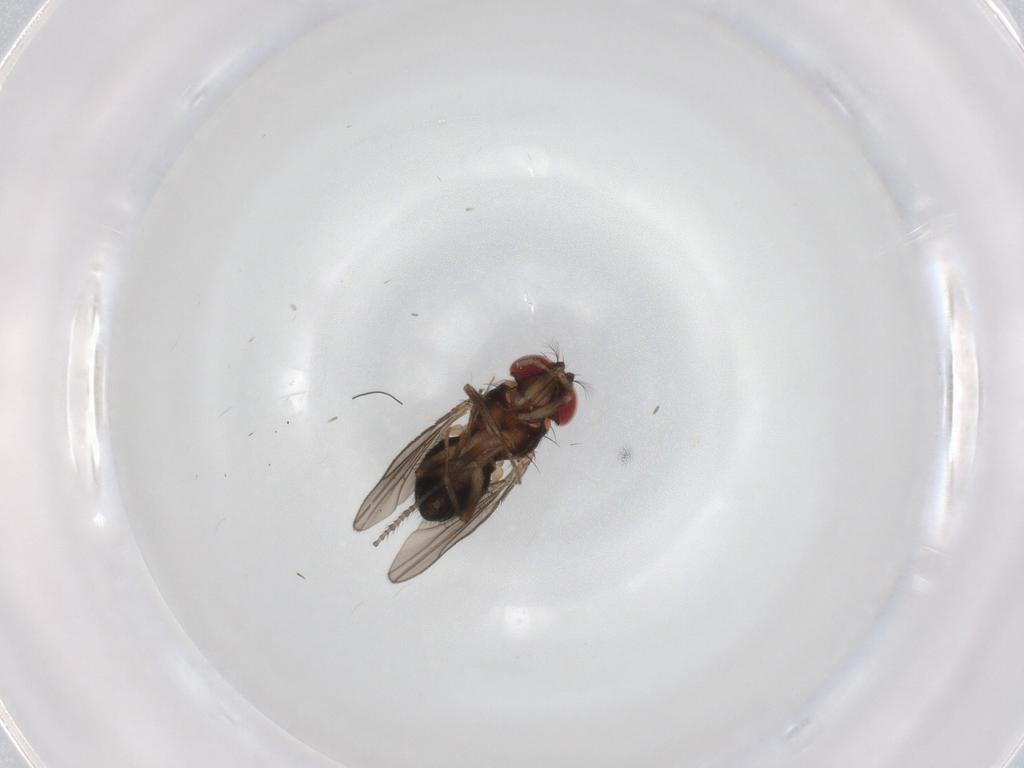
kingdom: Animalia
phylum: Arthropoda
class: Insecta
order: Diptera
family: Drosophilidae
